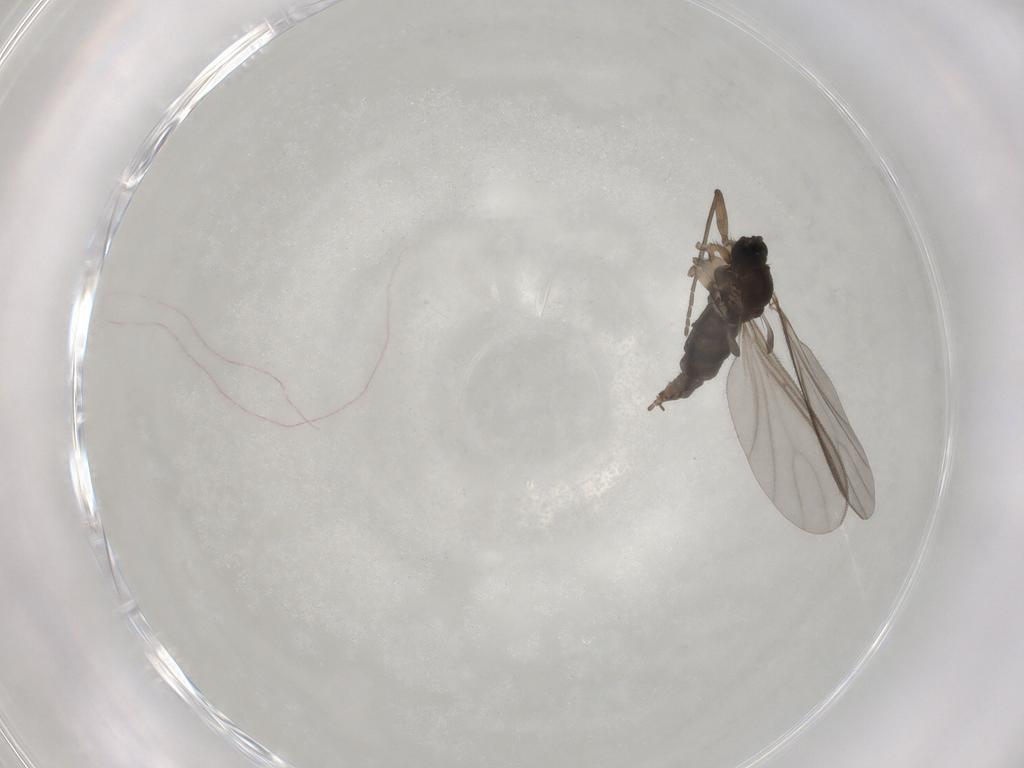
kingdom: Animalia
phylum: Arthropoda
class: Insecta
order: Diptera
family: Sciaridae
